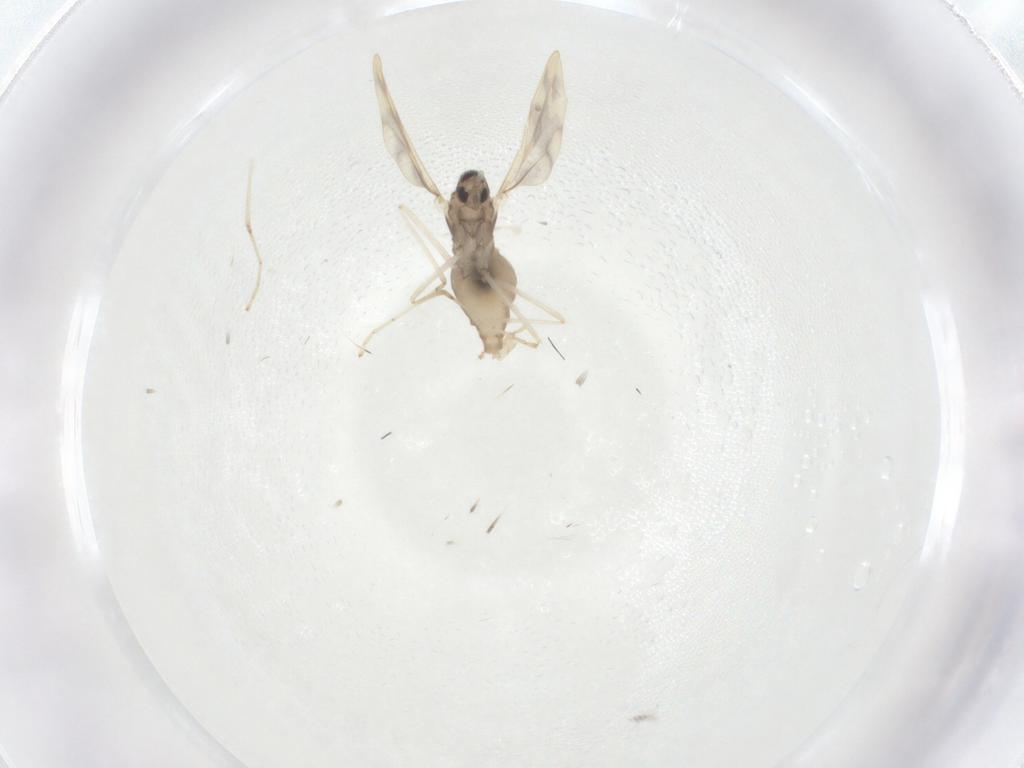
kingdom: Animalia
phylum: Arthropoda
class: Insecta
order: Diptera
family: Cecidomyiidae
